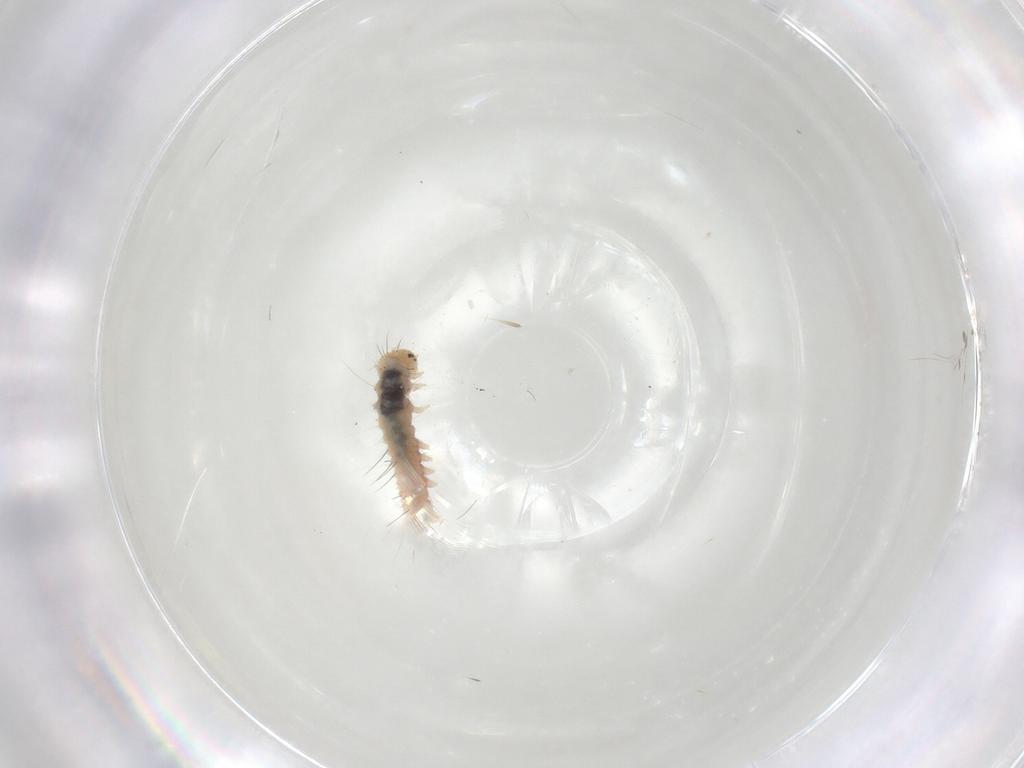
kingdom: Animalia
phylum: Arthropoda
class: Insecta
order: Lepidoptera
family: Erebidae
